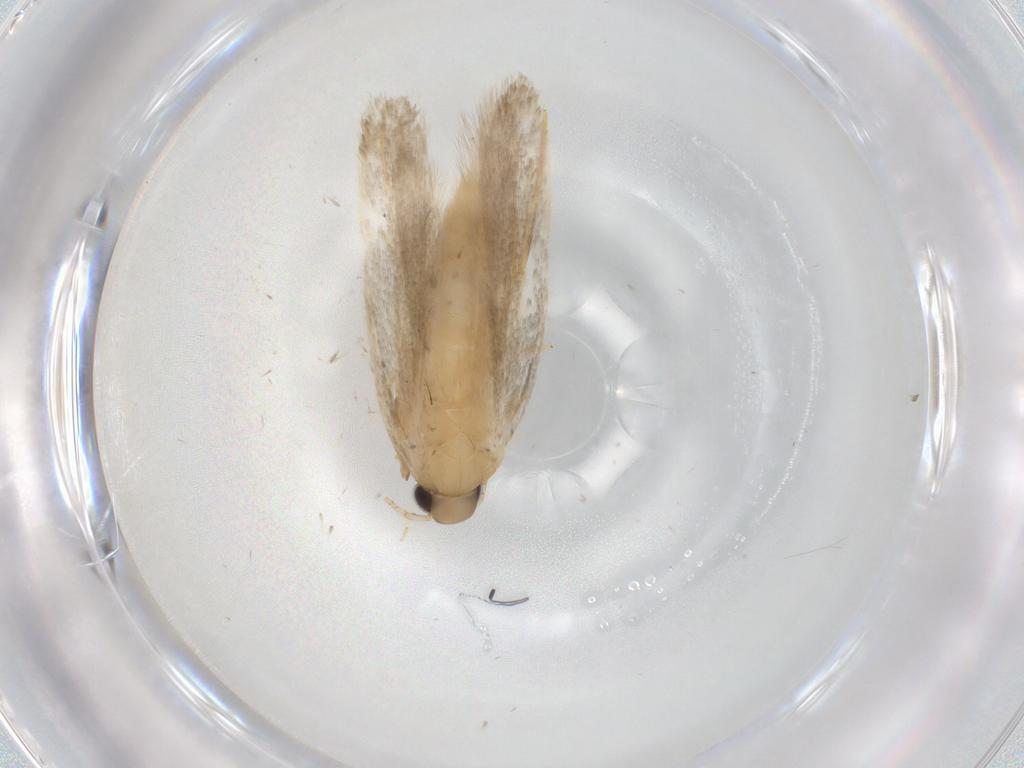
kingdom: Animalia
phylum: Arthropoda
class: Insecta
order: Lepidoptera
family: Autostichidae
